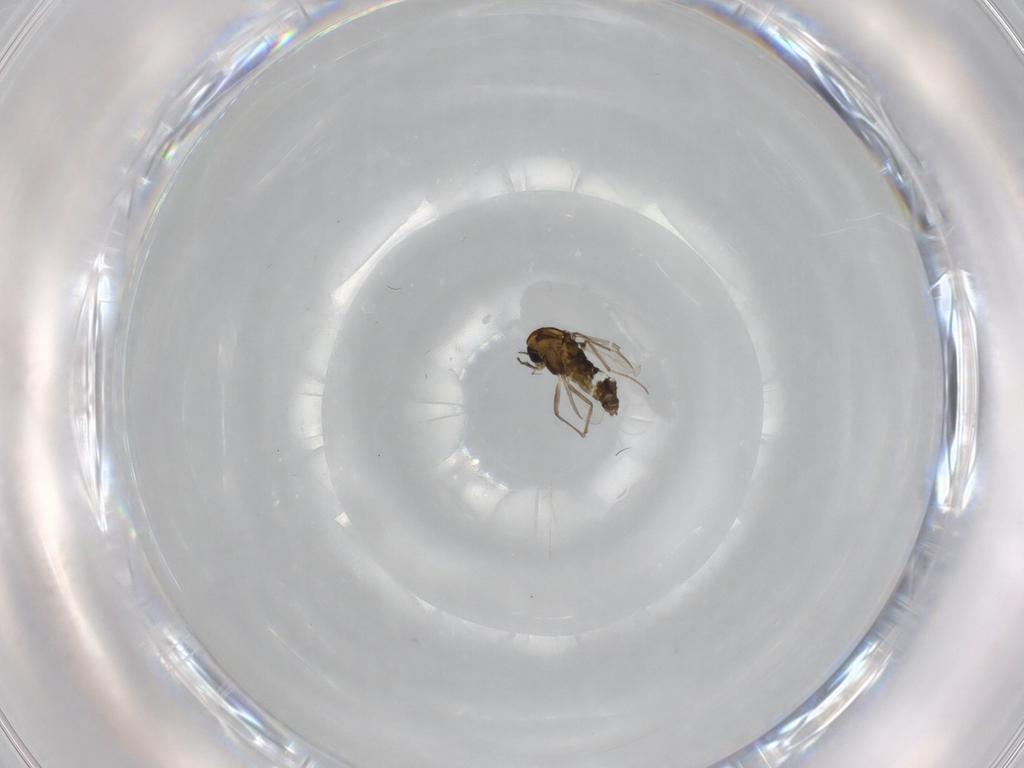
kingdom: Animalia
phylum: Arthropoda
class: Insecta
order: Diptera
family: Chironomidae
